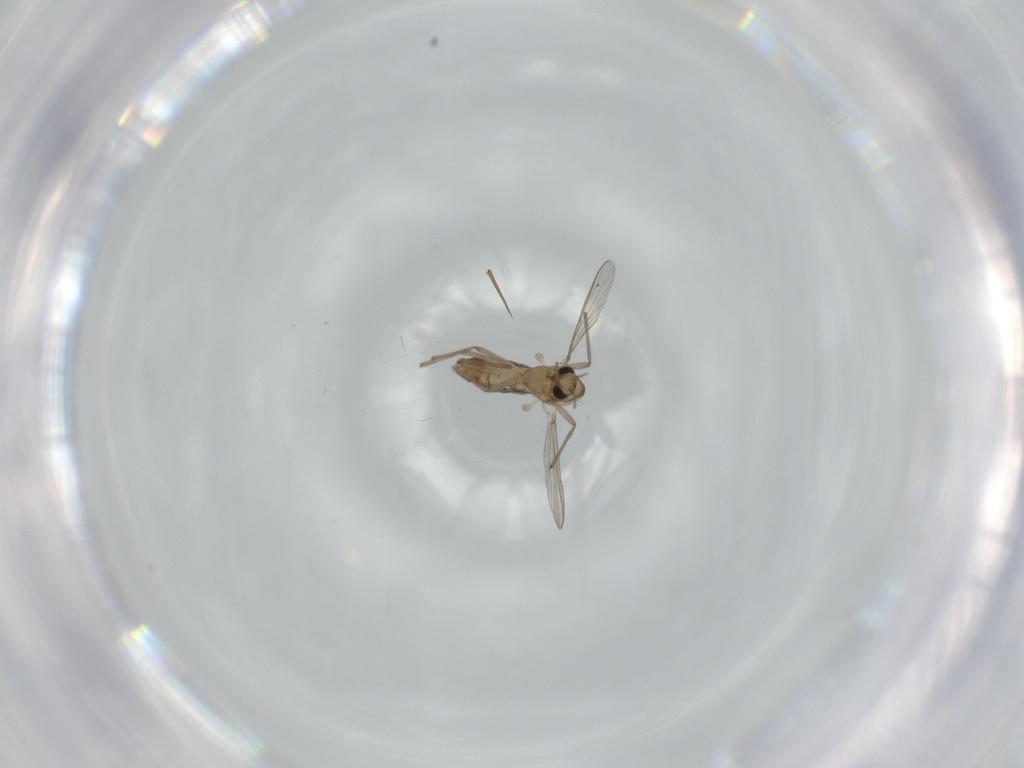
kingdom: Animalia
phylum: Arthropoda
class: Insecta
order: Diptera
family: Chironomidae
